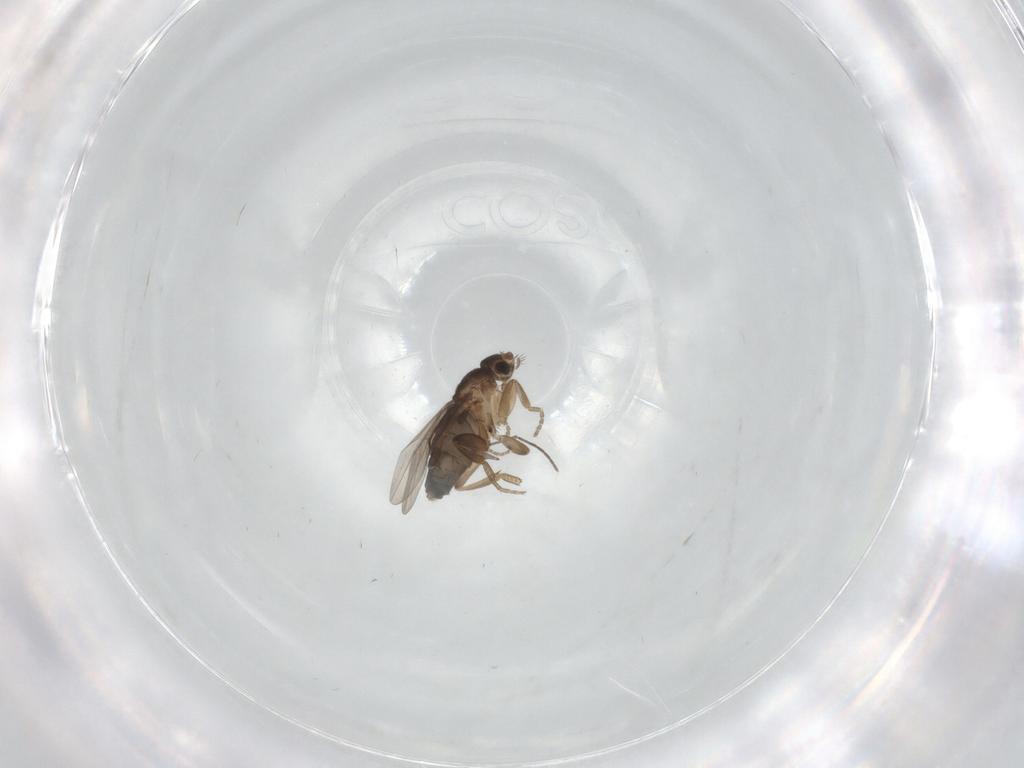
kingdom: Animalia
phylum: Arthropoda
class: Insecta
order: Diptera
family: Phoridae
